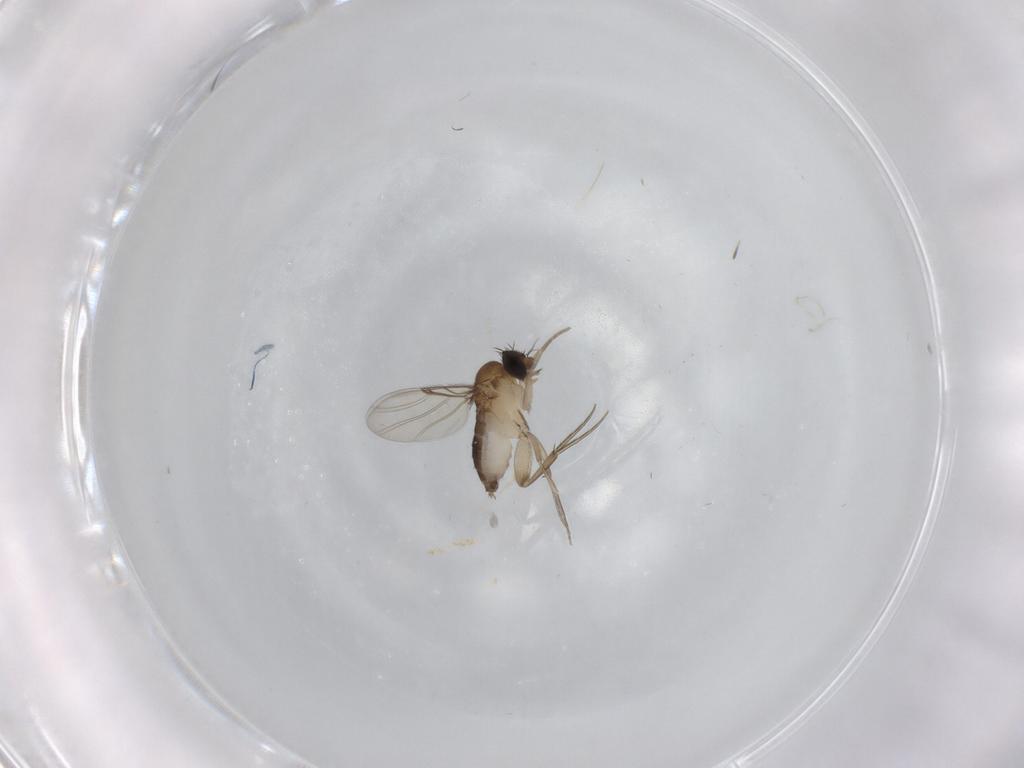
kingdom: Animalia
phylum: Arthropoda
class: Insecta
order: Diptera
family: Phoridae
